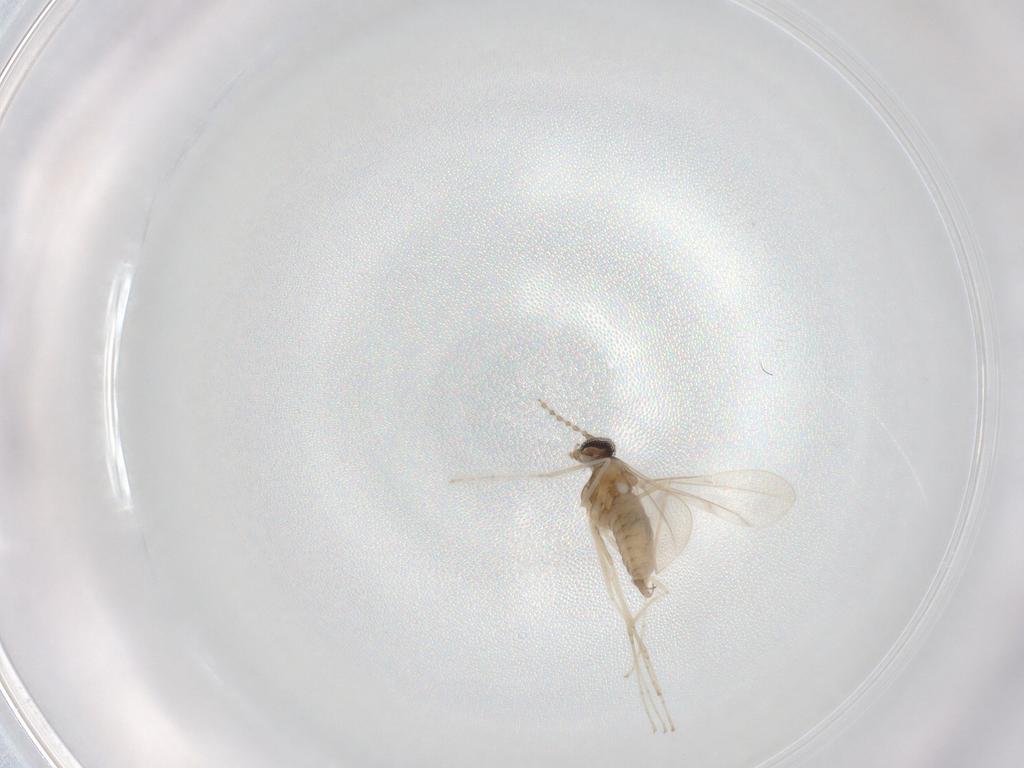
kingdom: Animalia
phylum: Arthropoda
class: Insecta
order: Diptera
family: Cecidomyiidae
